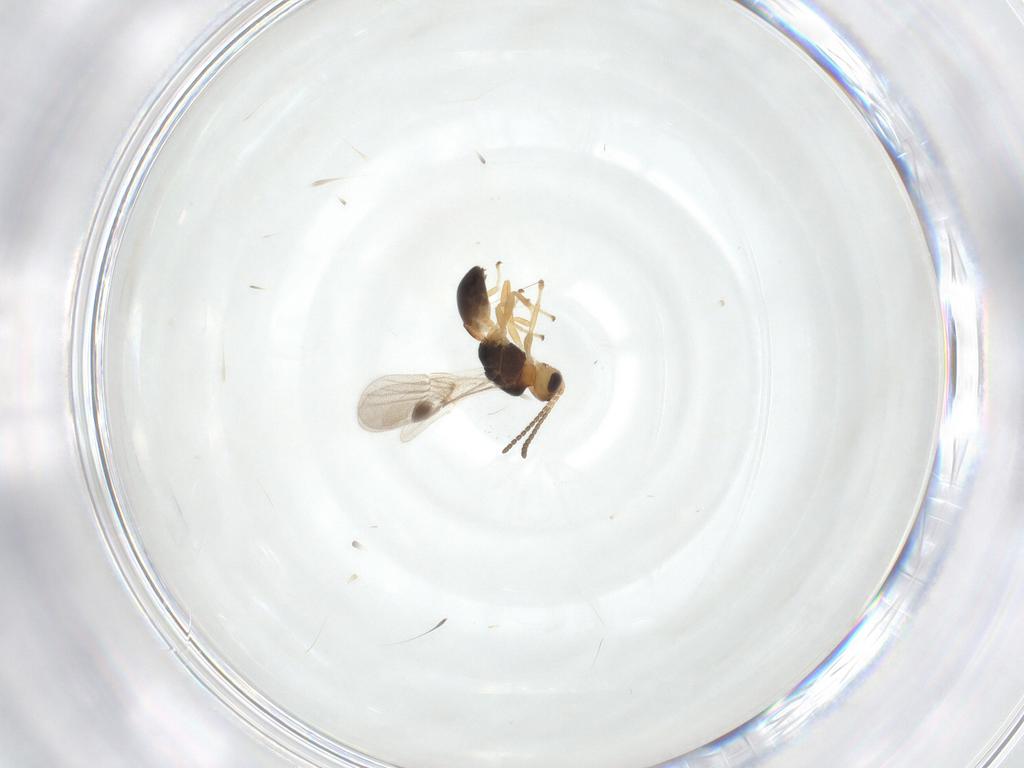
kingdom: Animalia
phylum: Arthropoda
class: Insecta
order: Hymenoptera
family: Braconidae
